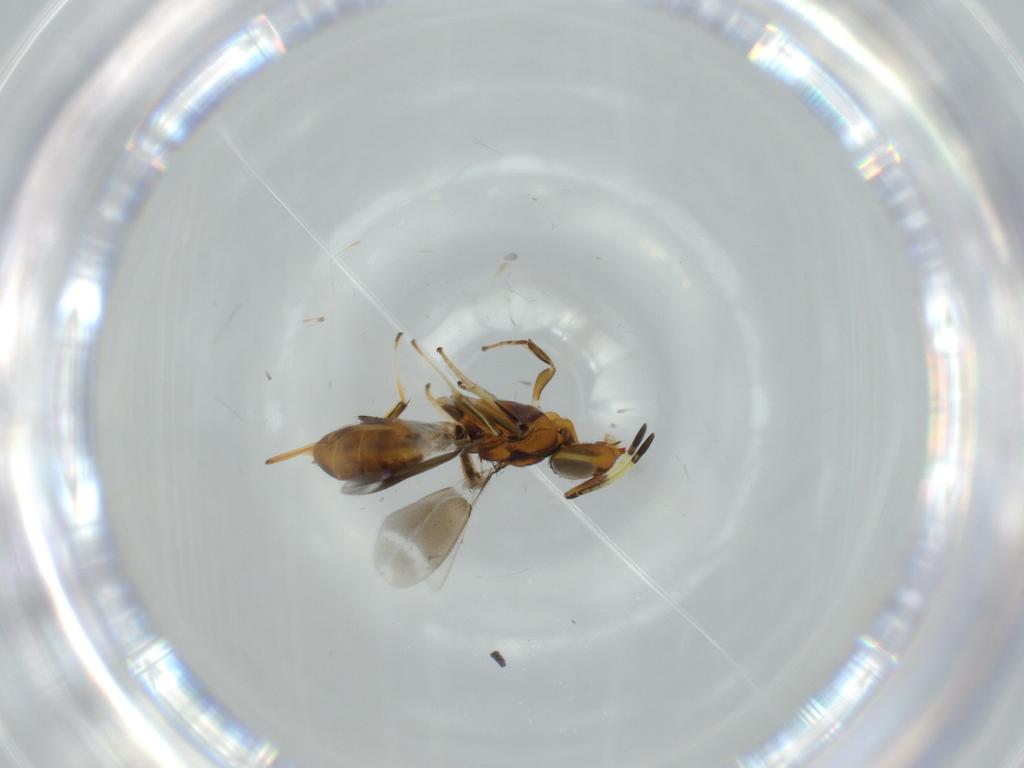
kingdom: Animalia
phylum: Arthropoda
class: Insecta
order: Hymenoptera
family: Eupelmidae
